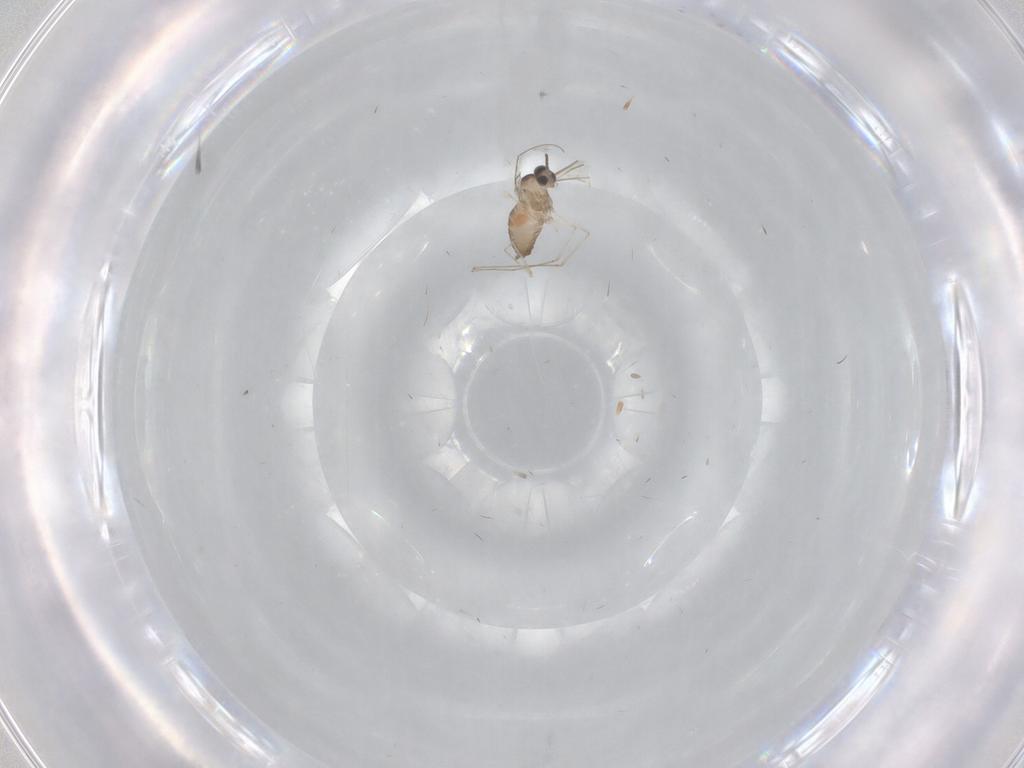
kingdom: Animalia
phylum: Arthropoda
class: Insecta
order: Diptera
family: Cecidomyiidae
